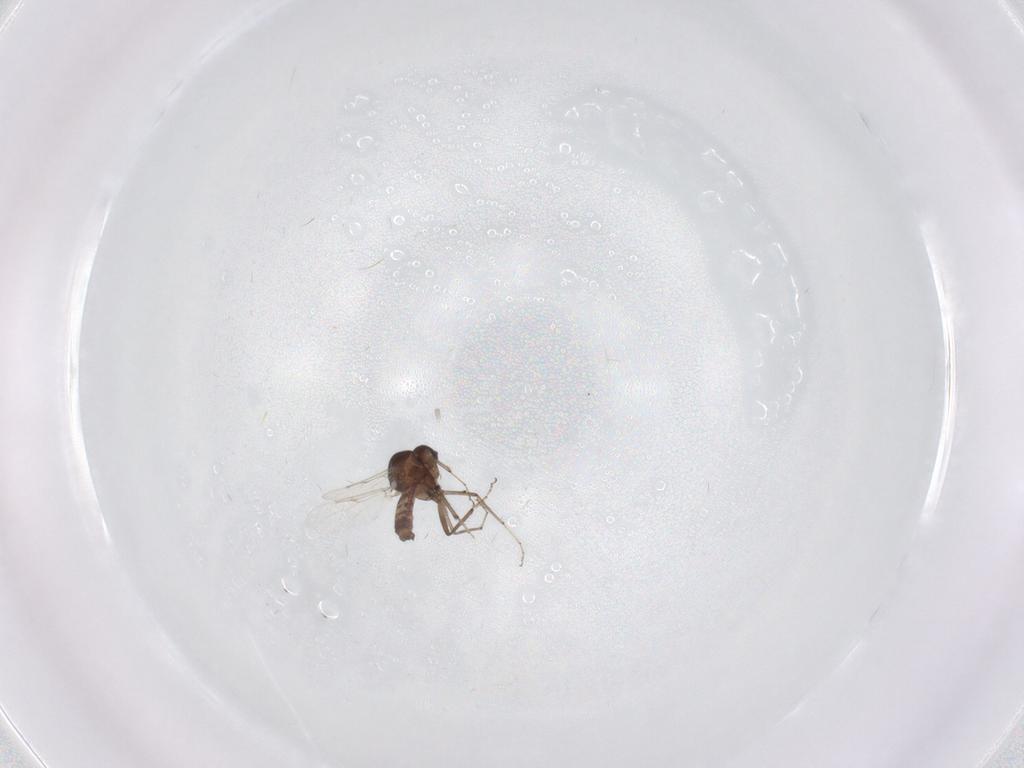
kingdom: Animalia
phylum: Arthropoda
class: Insecta
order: Diptera
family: Ceratopogonidae
